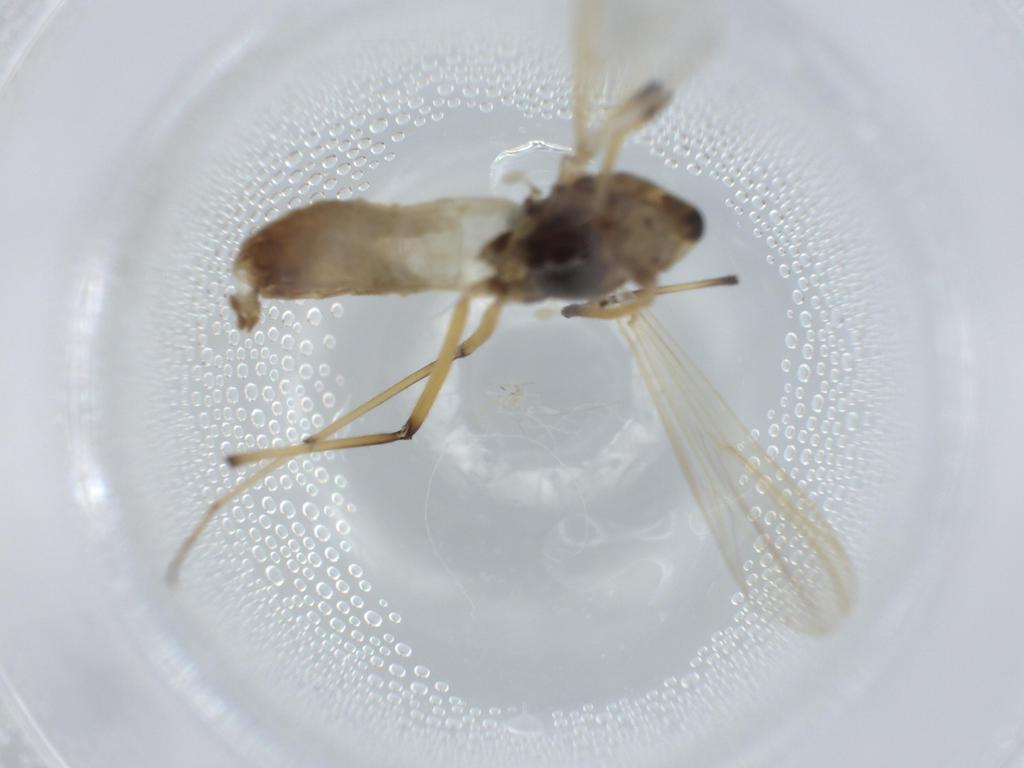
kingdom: Animalia
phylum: Arthropoda
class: Insecta
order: Diptera
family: Chironomidae
